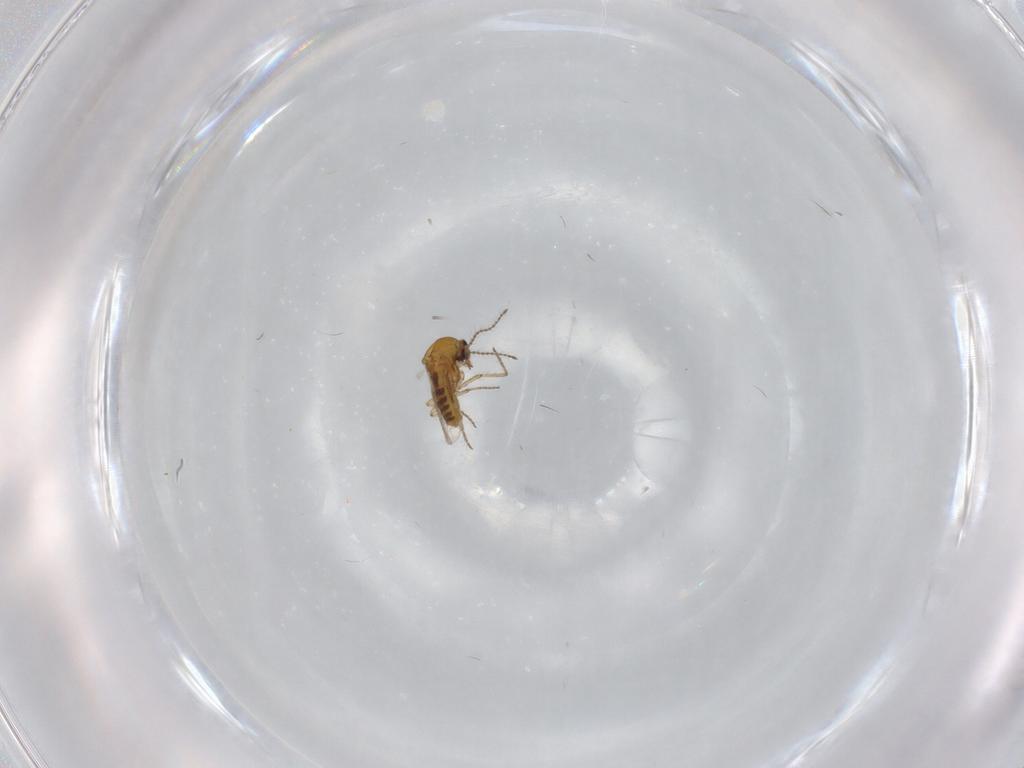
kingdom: Animalia
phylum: Arthropoda
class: Insecta
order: Diptera
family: Ceratopogonidae
